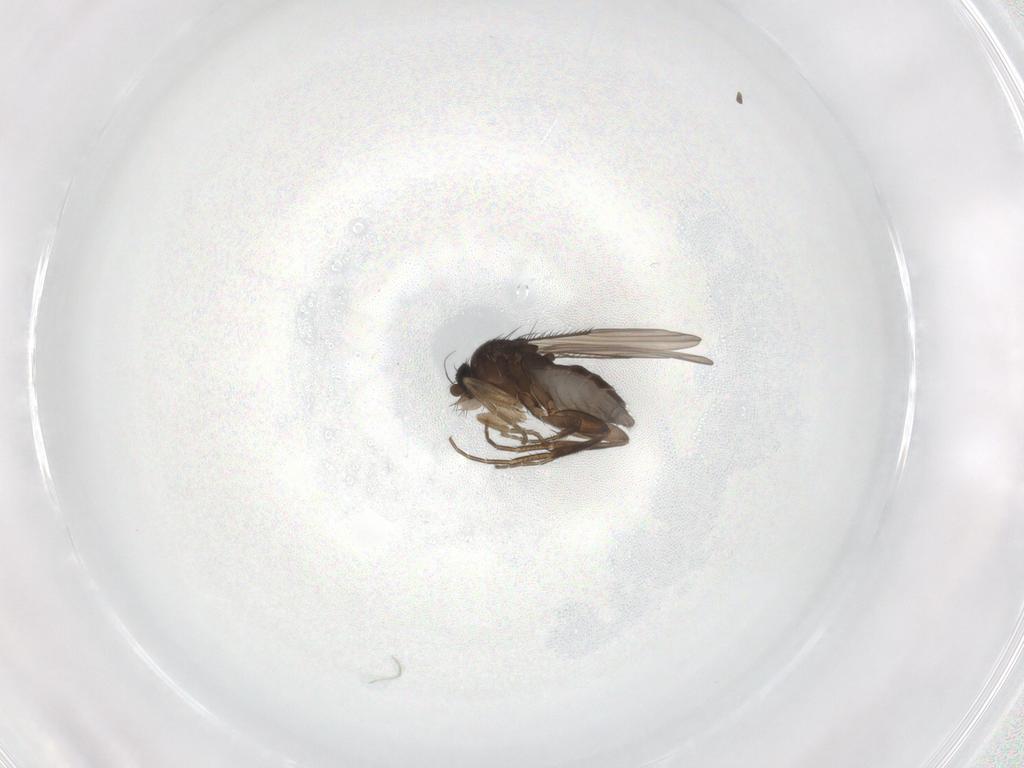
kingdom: Animalia
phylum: Arthropoda
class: Insecta
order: Diptera
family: Phoridae
